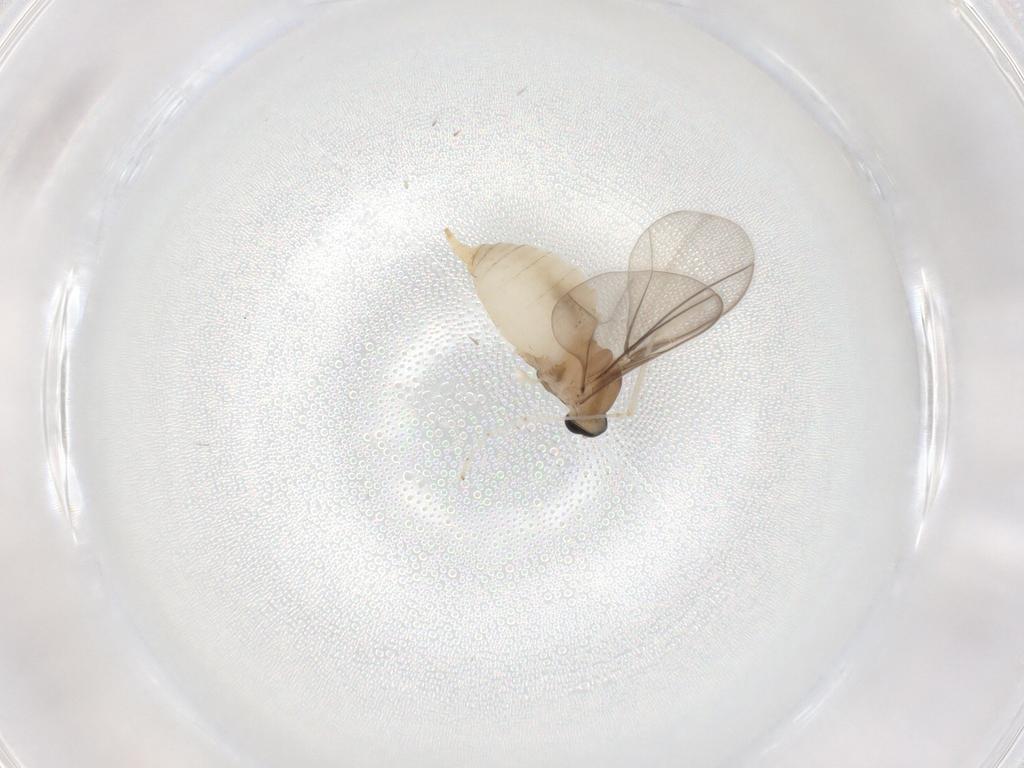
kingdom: Animalia
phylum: Arthropoda
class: Insecta
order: Diptera
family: Cecidomyiidae
